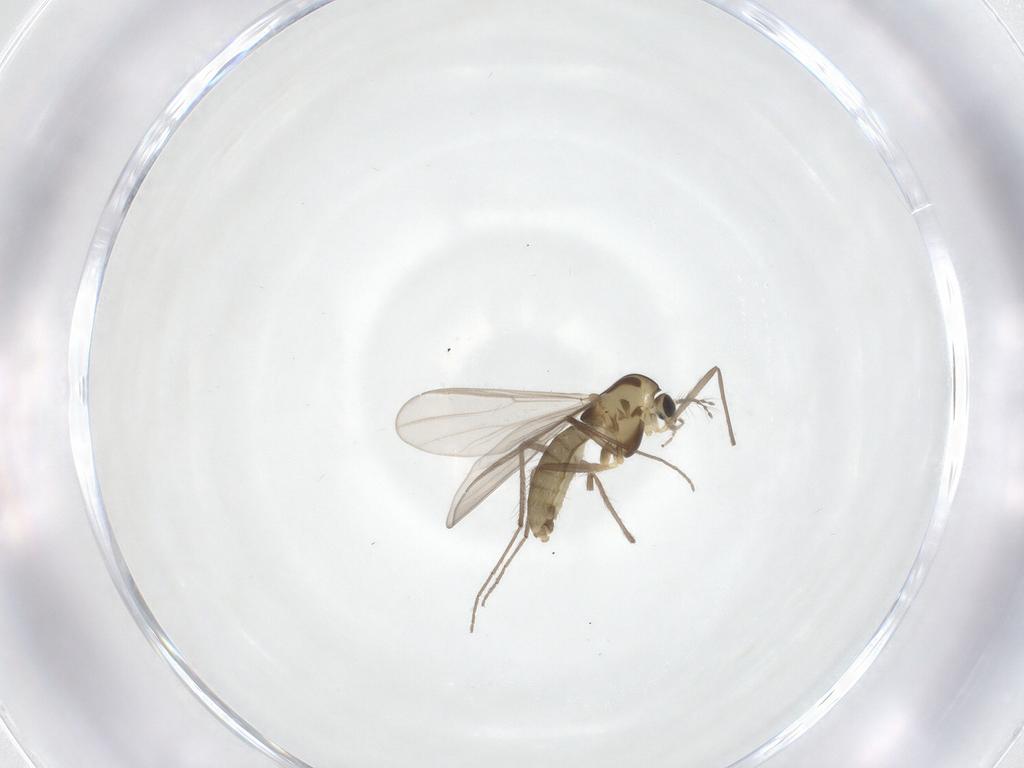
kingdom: Animalia
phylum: Arthropoda
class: Insecta
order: Diptera
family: Chironomidae
